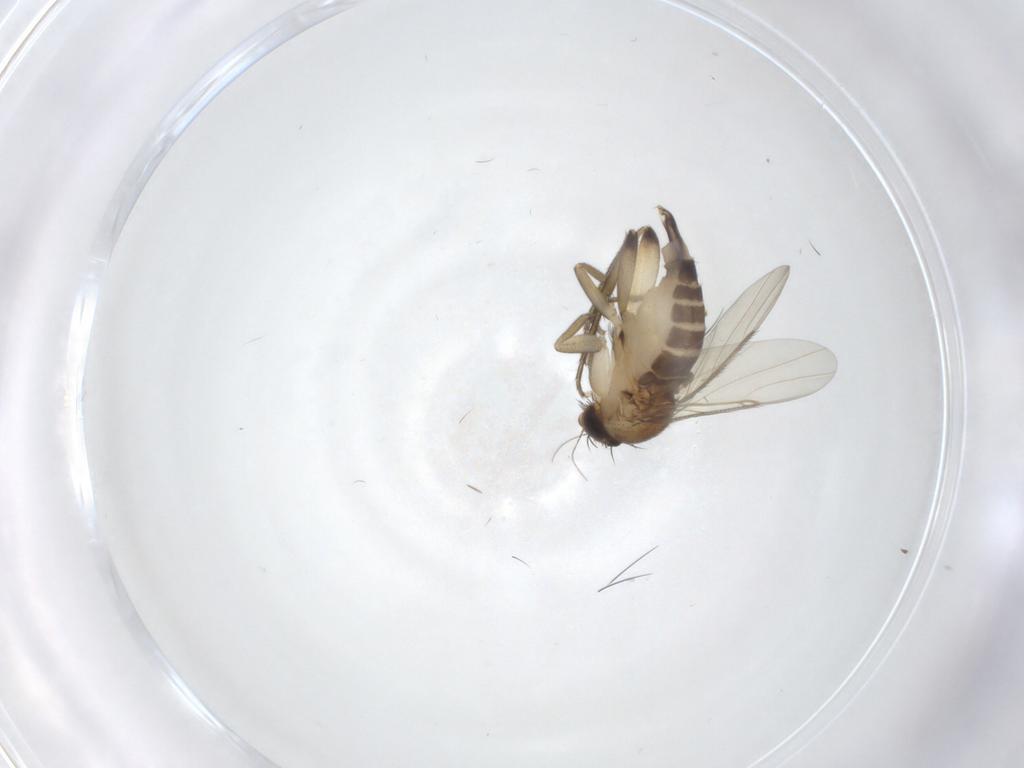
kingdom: Animalia
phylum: Arthropoda
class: Insecta
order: Diptera
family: Phoridae
